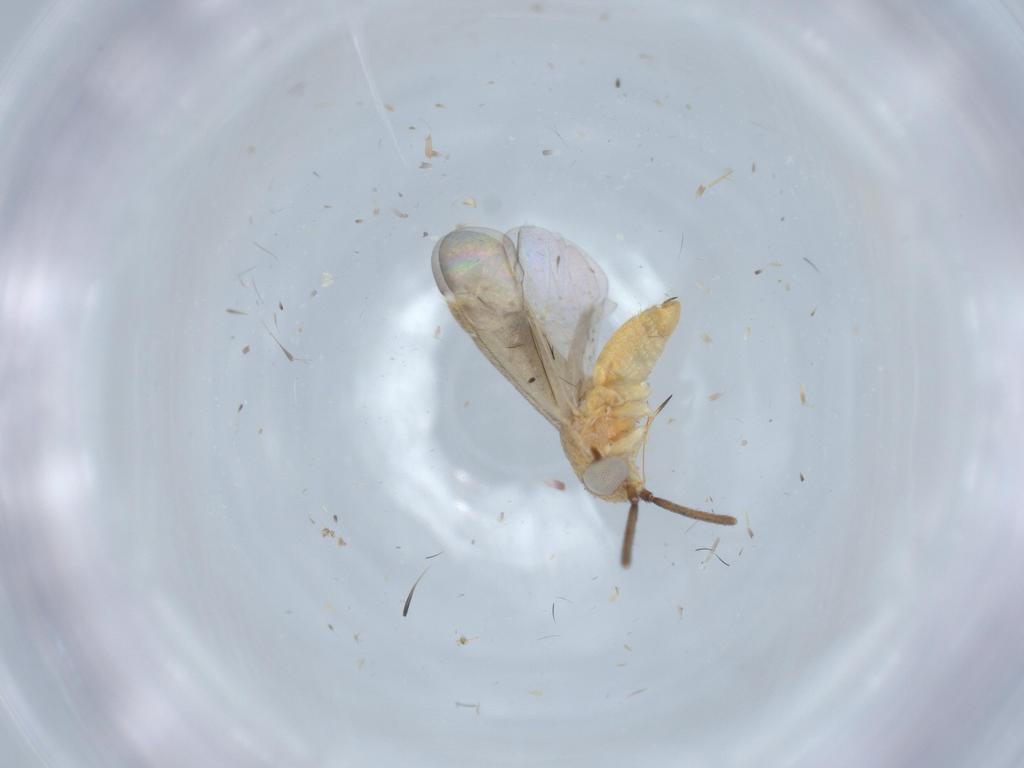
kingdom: Animalia
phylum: Arthropoda
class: Insecta
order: Hemiptera
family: Miridae
